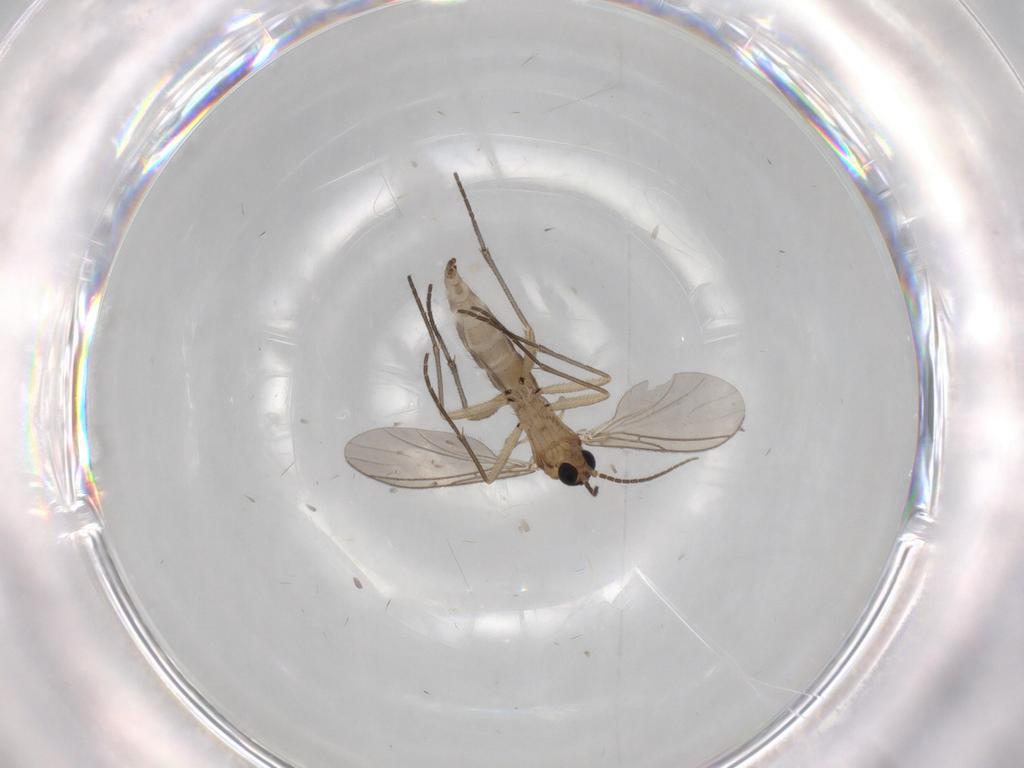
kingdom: Animalia
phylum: Arthropoda
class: Insecta
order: Diptera
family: Sciaridae
